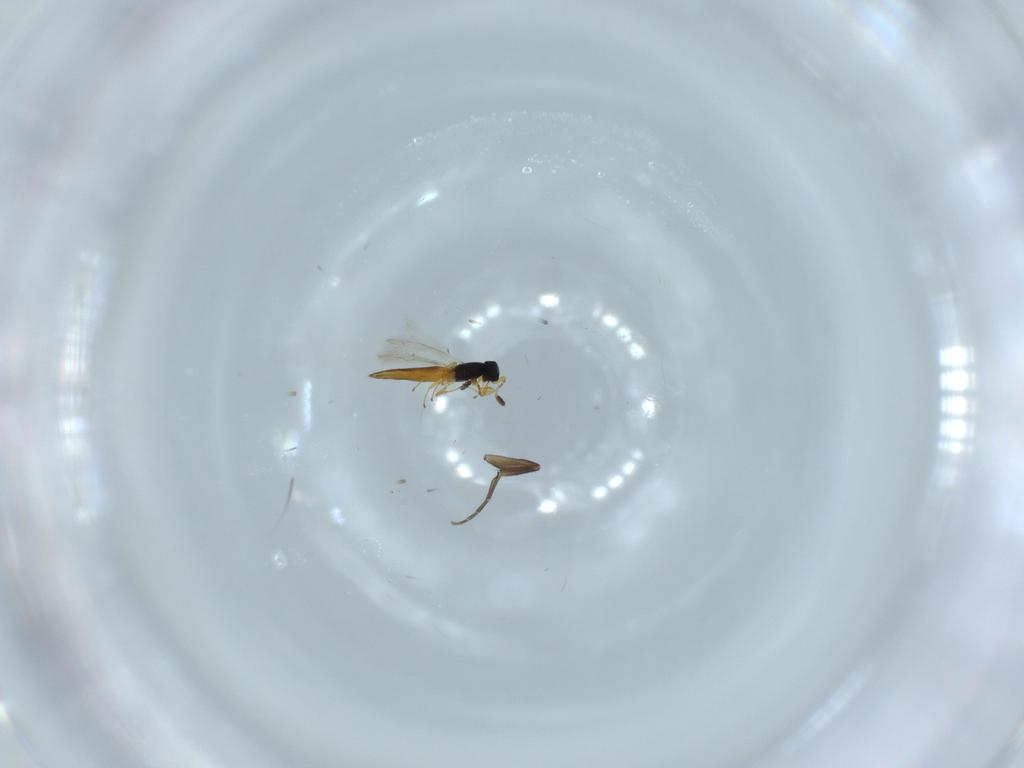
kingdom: Animalia
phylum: Arthropoda
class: Insecta
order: Hymenoptera
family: Scelionidae
